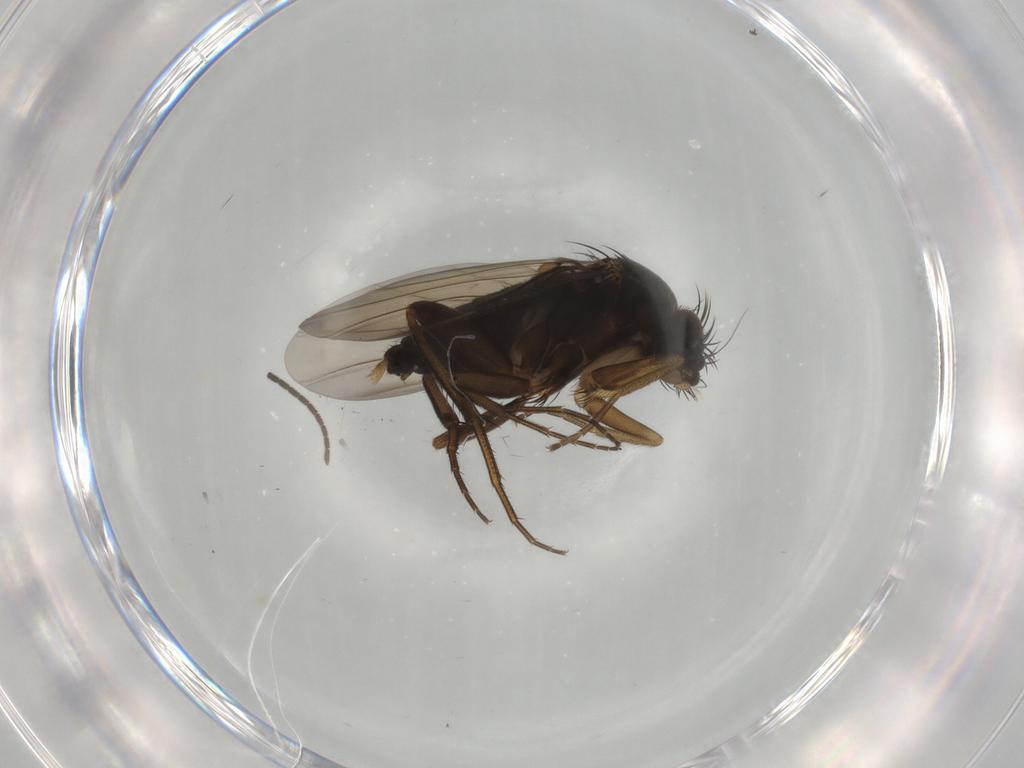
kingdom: Animalia
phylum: Arthropoda
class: Insecta
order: Diptera
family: Phoridae
